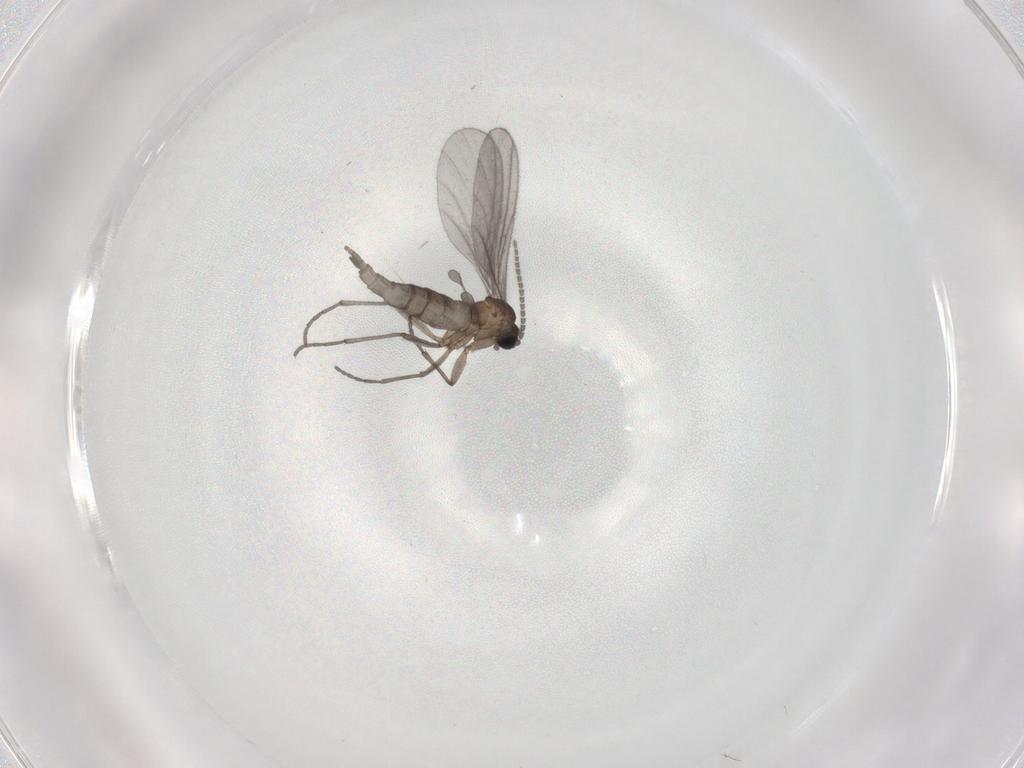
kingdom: Animalia
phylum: Arthropoda
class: Insecta
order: Diptera
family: Sciaridae
